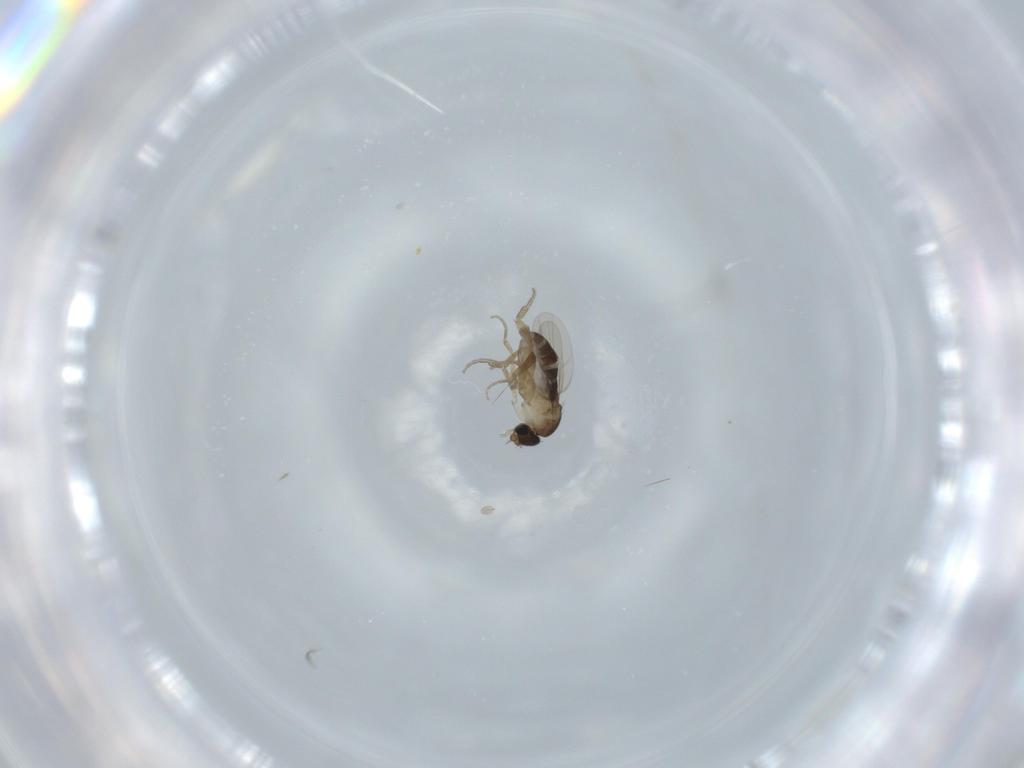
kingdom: Animalia
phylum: Arthropoda
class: Insecta
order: Diptera
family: Phoridae
